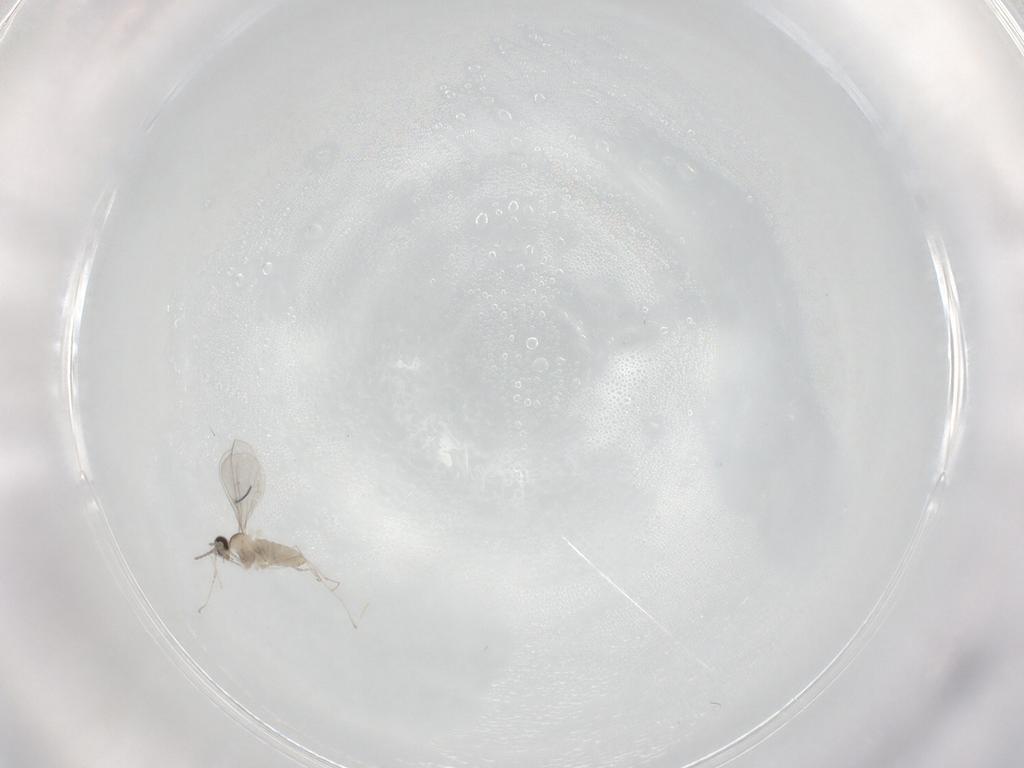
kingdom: Animalia
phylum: Arthropoda
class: Insecta
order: Diptera
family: Cecidomyiidae
